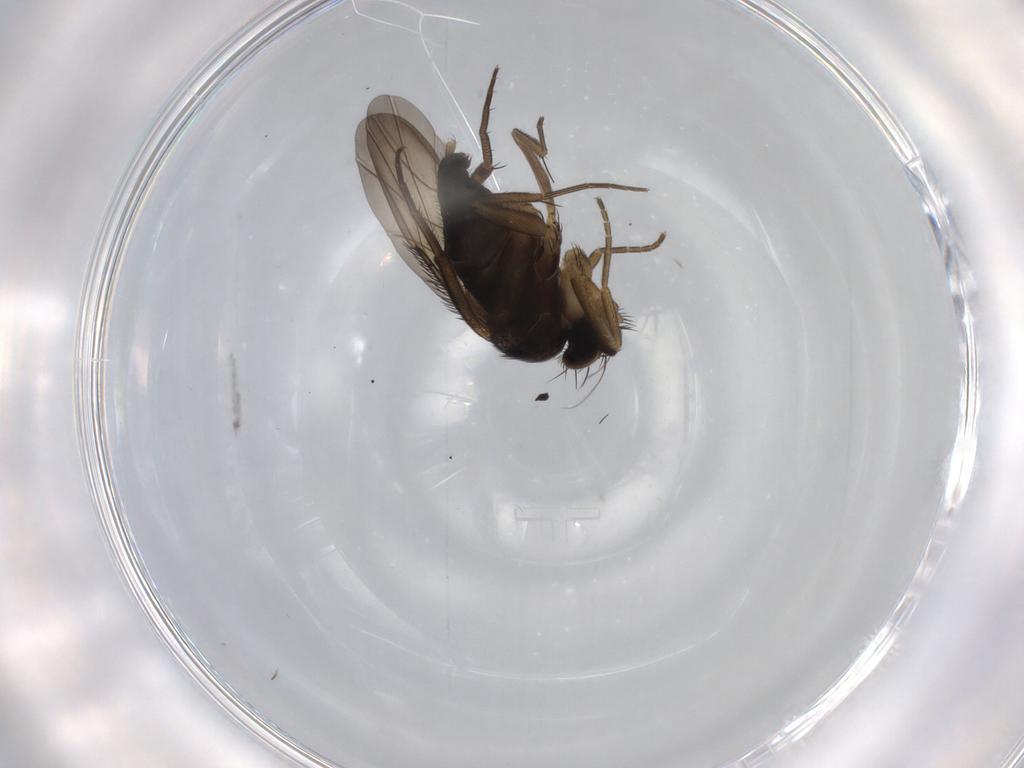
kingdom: Animalia
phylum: Arthropoda
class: Insecta
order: Diptera
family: Phoridae
